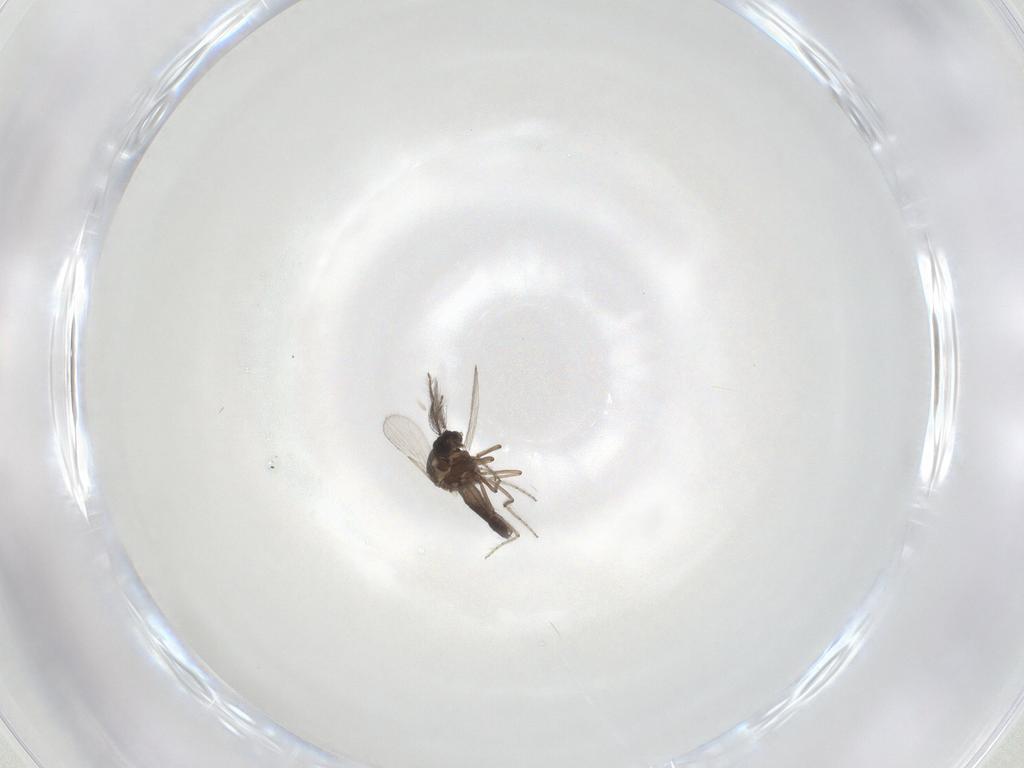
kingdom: Animalia
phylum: Arthropoda
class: Insecta
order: Diptera
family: Ceratopogonidae
